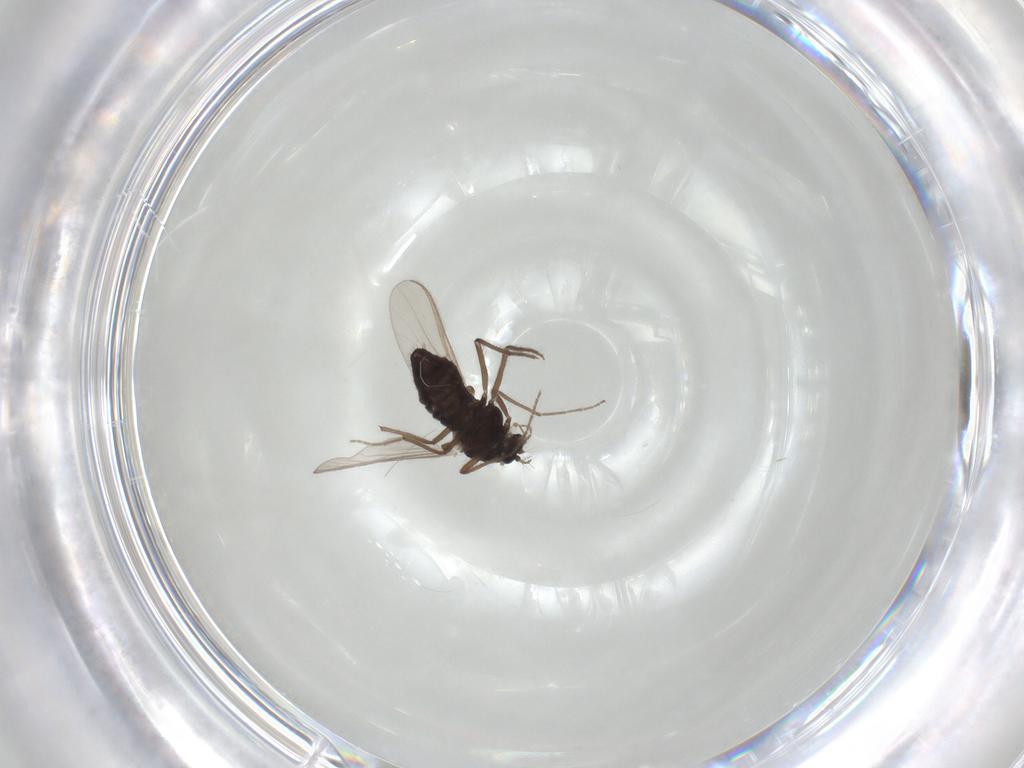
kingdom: Animalia
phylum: Arthropoda
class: Insecta
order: Diptera
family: Chironomidae
